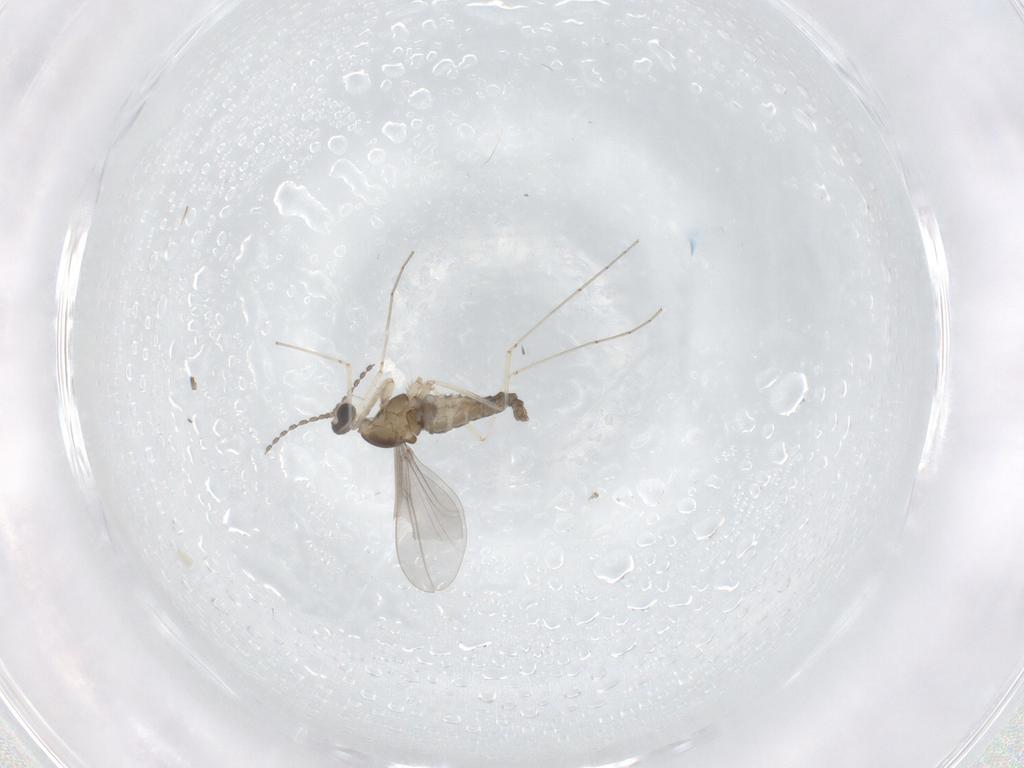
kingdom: Animalia
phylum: Arthropoda
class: Insecta
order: Diptera
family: Cecidomyiidae
